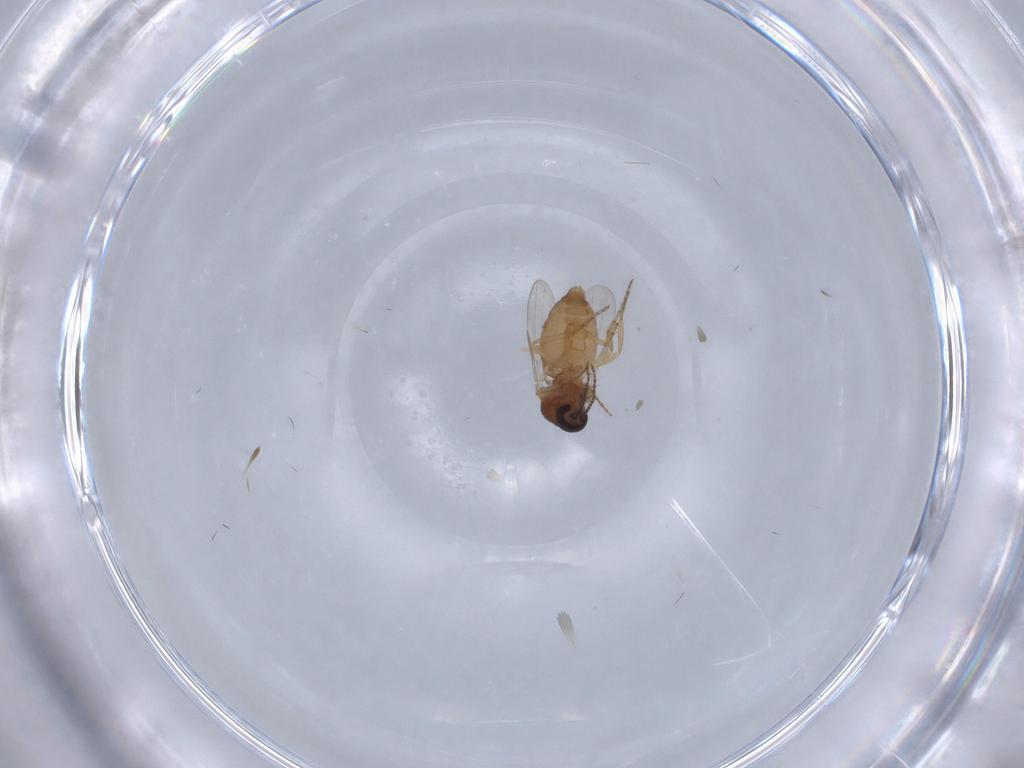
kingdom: Animalia
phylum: Arthropoda
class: Insecta
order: Diptera
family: Ceratopogonidae
